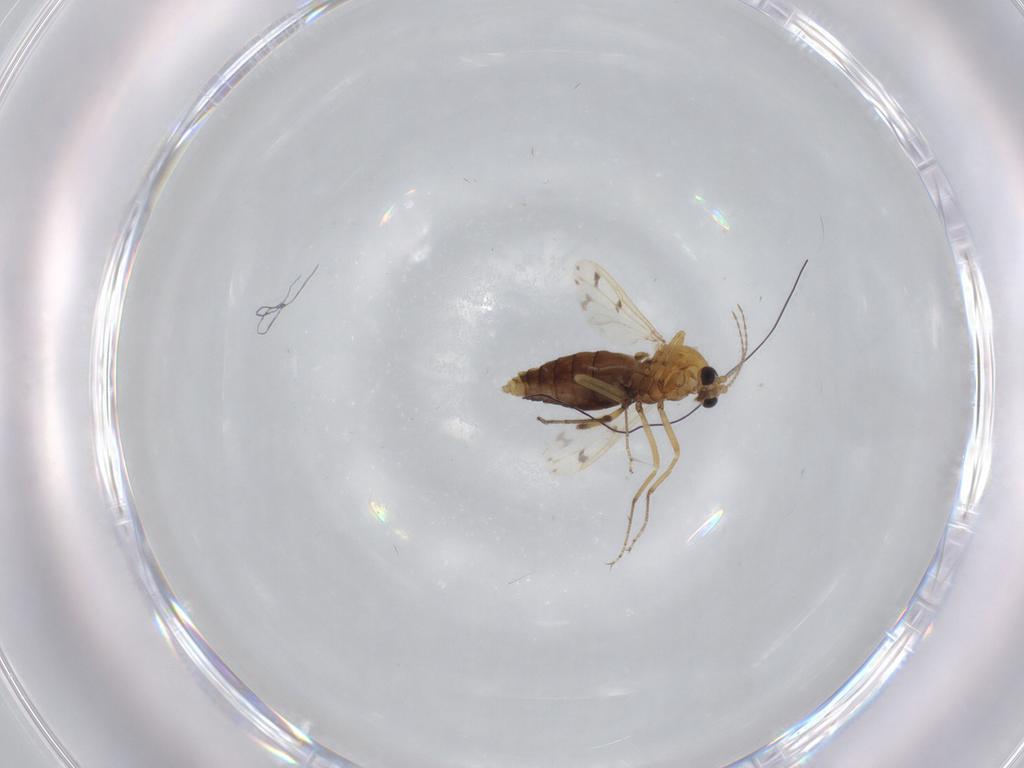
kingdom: Animalia
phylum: Arthropoda
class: Insecta
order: Diptera
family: Ceratopogonidae
